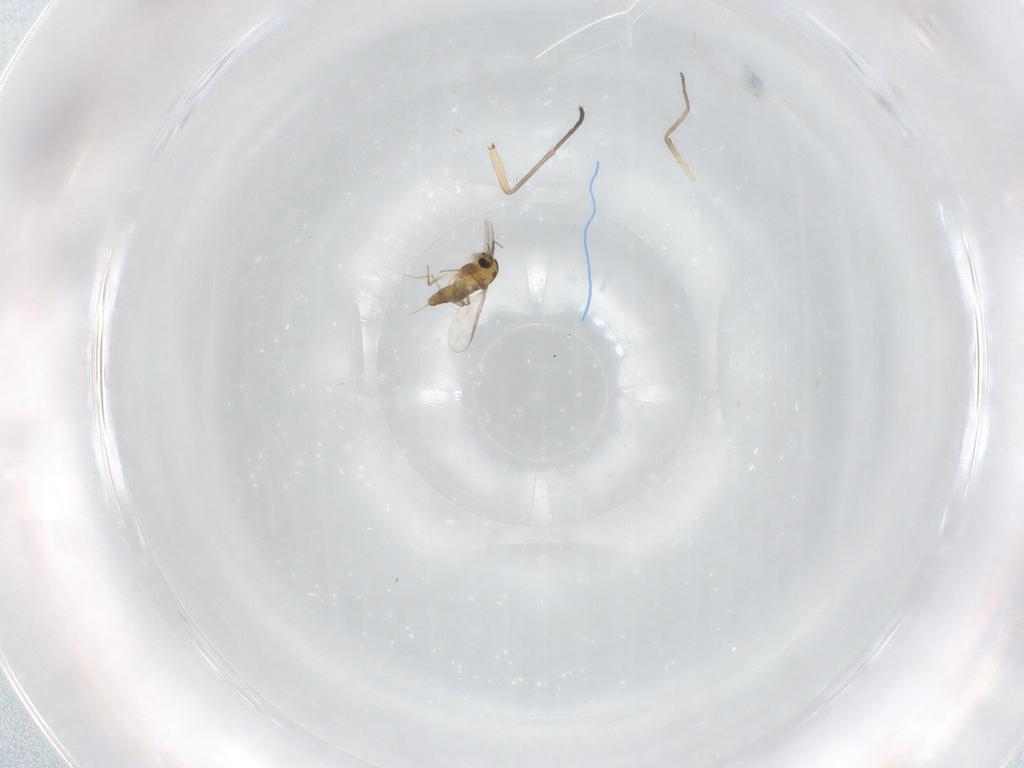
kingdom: Animalia
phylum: Arthropoda
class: Insecta
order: Diptera
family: Chironomidae
